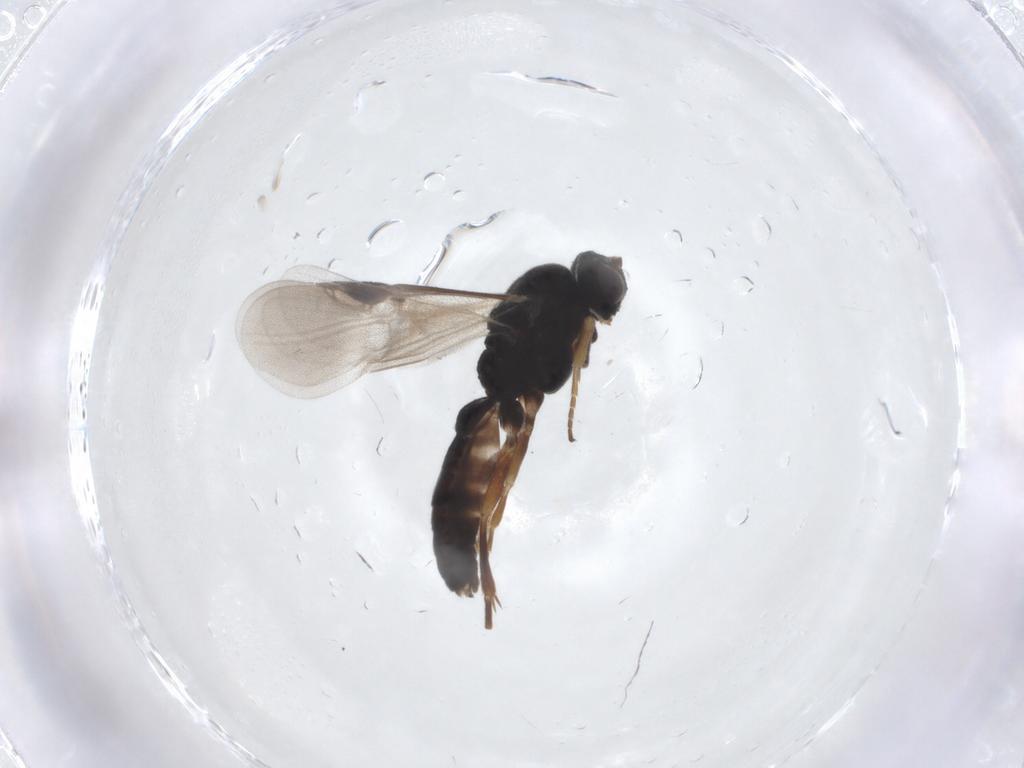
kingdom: Animalia
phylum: Arthropoda
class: Insecta
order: Hymenoptera
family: Braconidae
